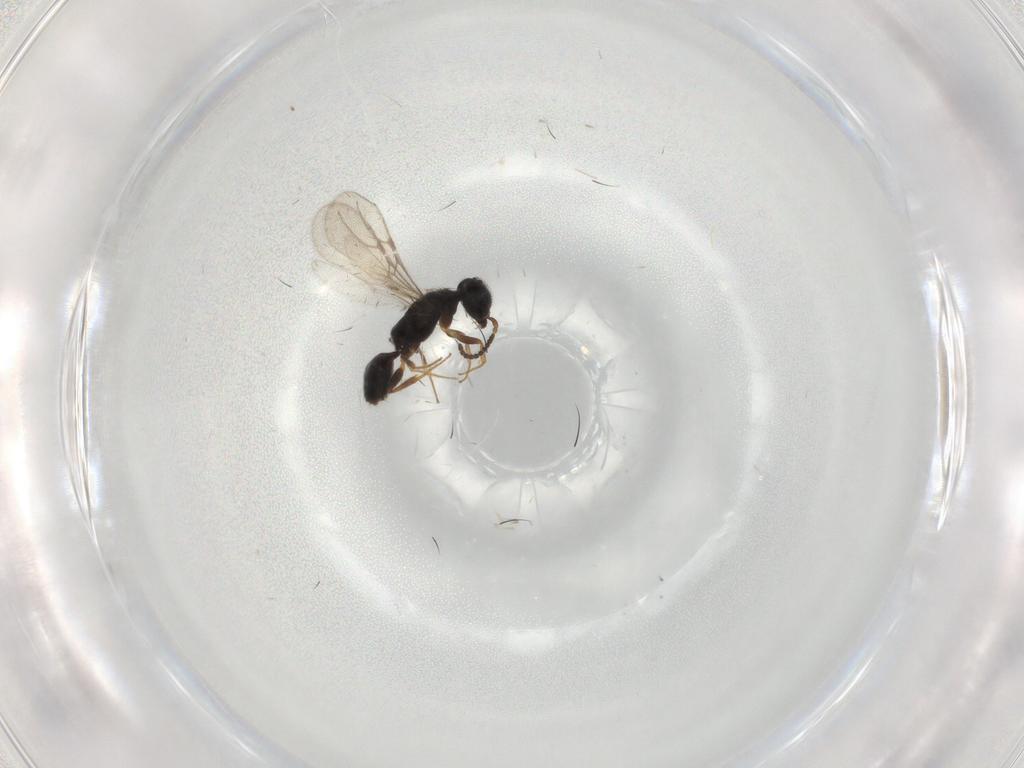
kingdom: Animalia
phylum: Arthropoda
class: Insecta
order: Hymenoptera
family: Bethylidae
